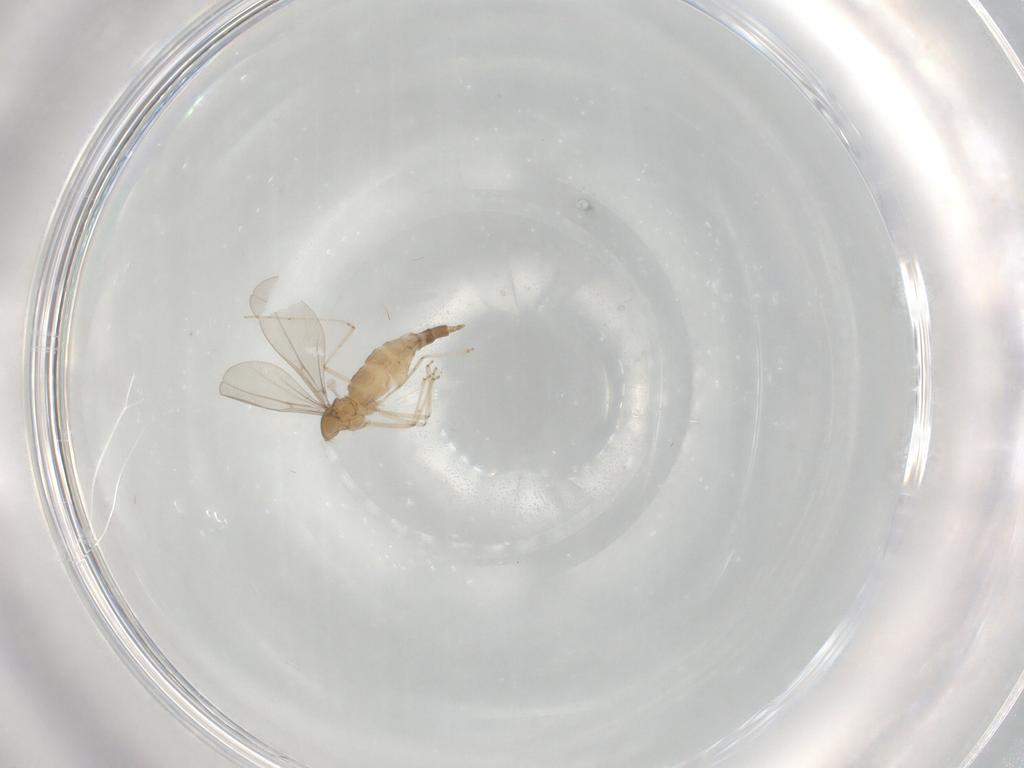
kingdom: Animalia
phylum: Arthropoda
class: Insecta
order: Diptera
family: Cecidomyiidae
